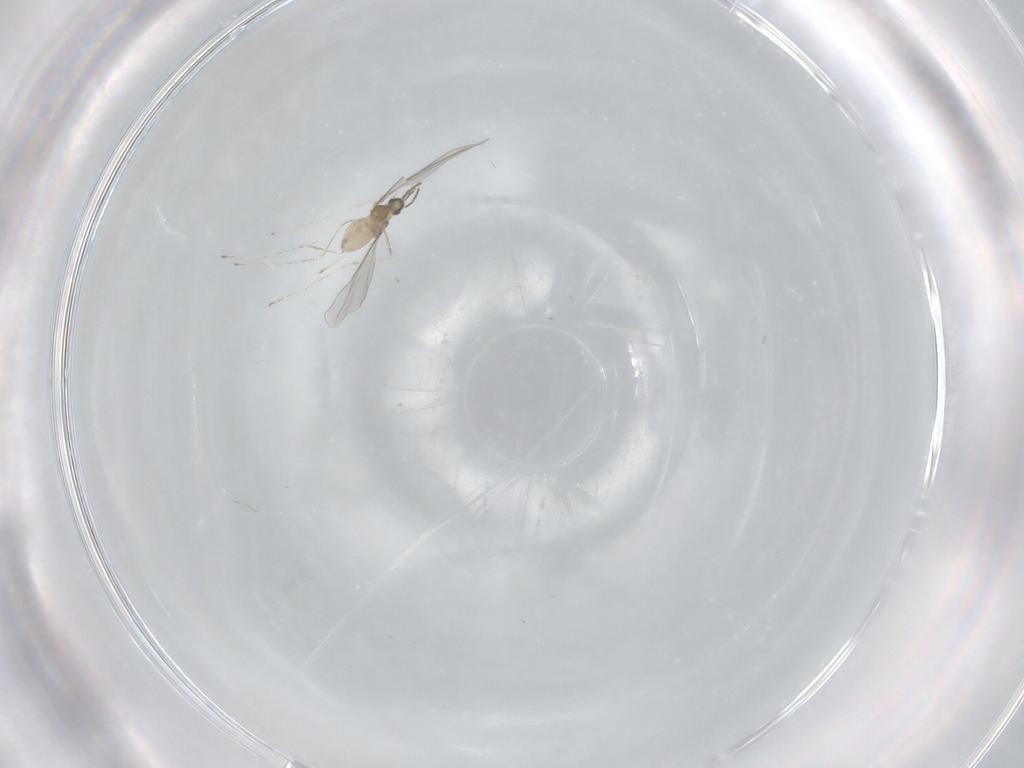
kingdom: Animalia
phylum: Arthropoda
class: Insecta
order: Diptera
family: Cecidomyiidae
